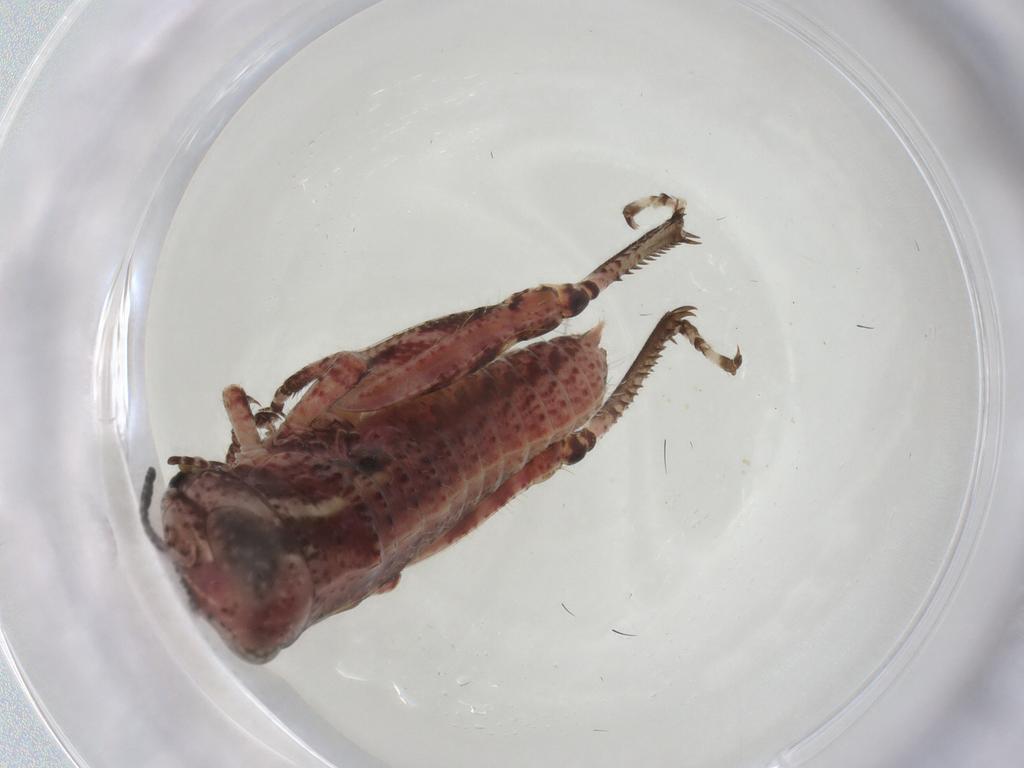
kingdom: Animalia
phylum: Arthropoda
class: Insecta
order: Orthoptera
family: Acrididae
